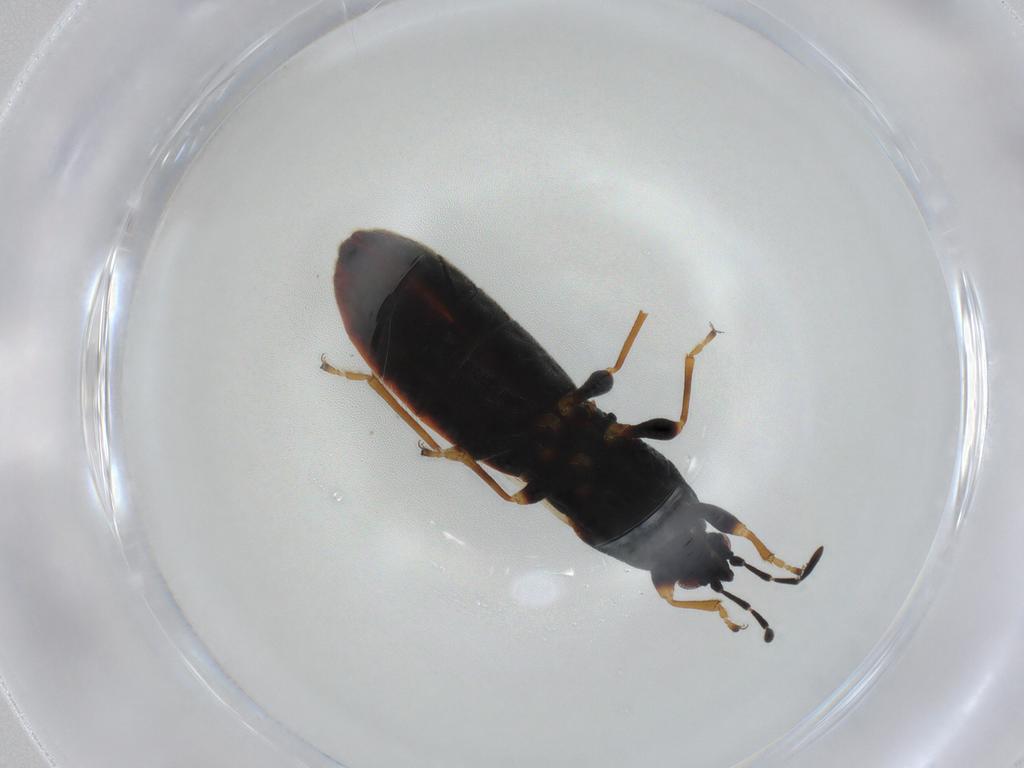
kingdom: Animalia
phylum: Arthropoda
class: Insecta
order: Hemiptera
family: Blissidae
